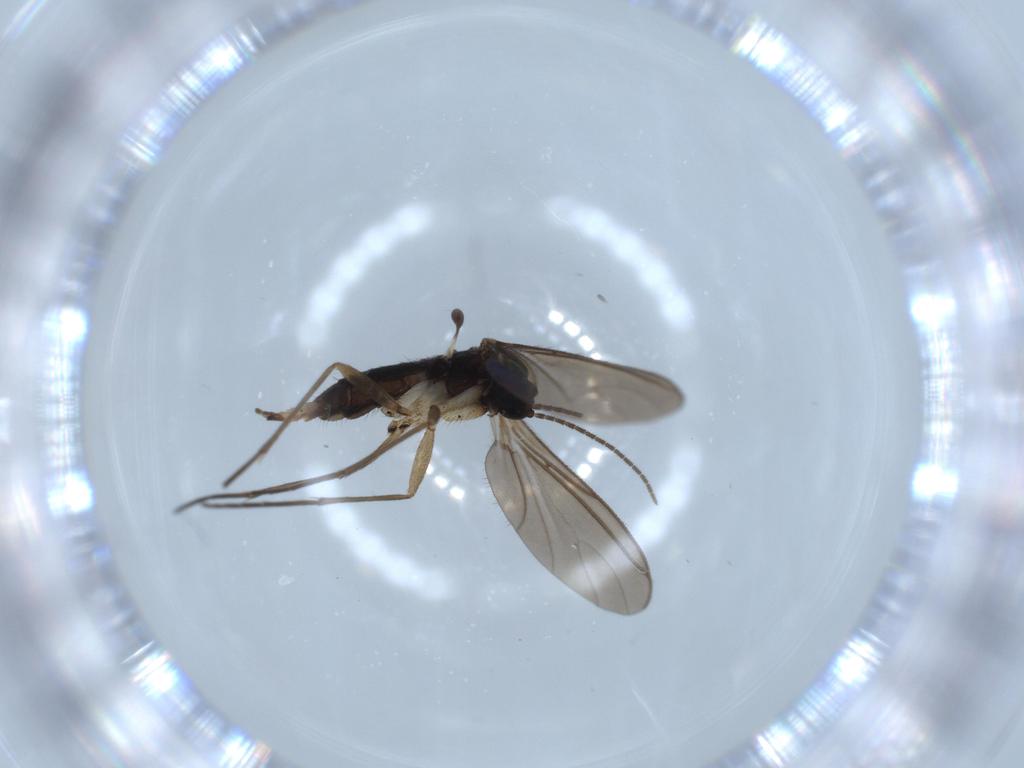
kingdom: Animalia
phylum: Arthropoda
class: Insecta
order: Diptera
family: Sciaridae
